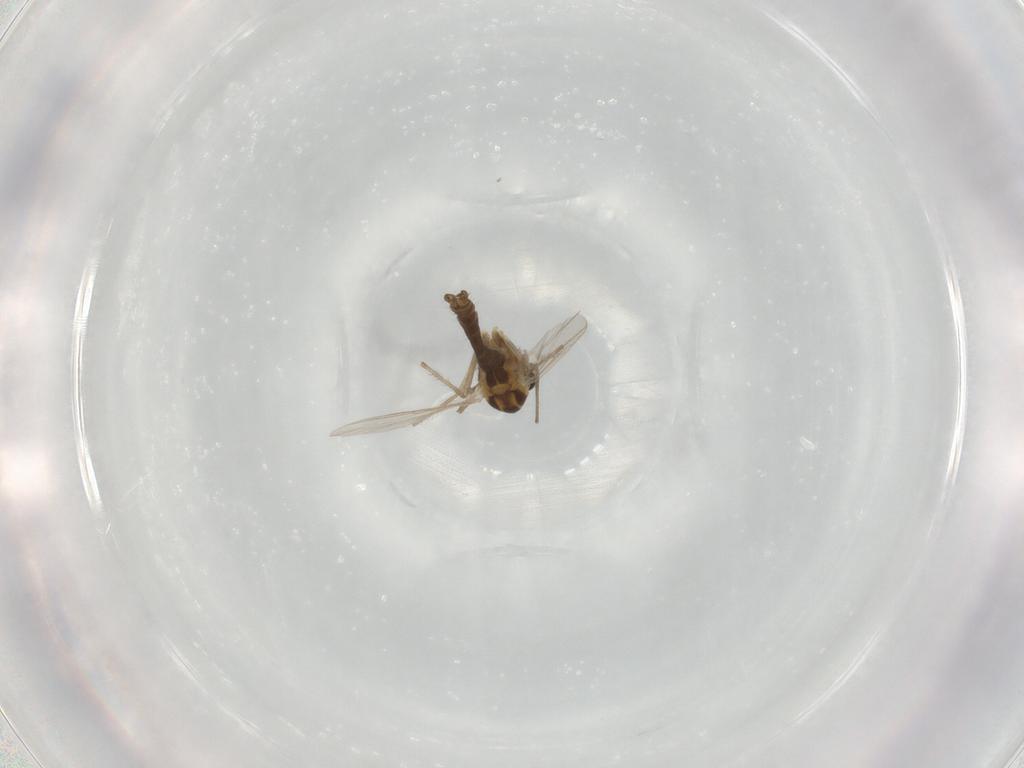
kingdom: Animalia
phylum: Arthropoda
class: Insecta
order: Diptera
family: Chironomidae
